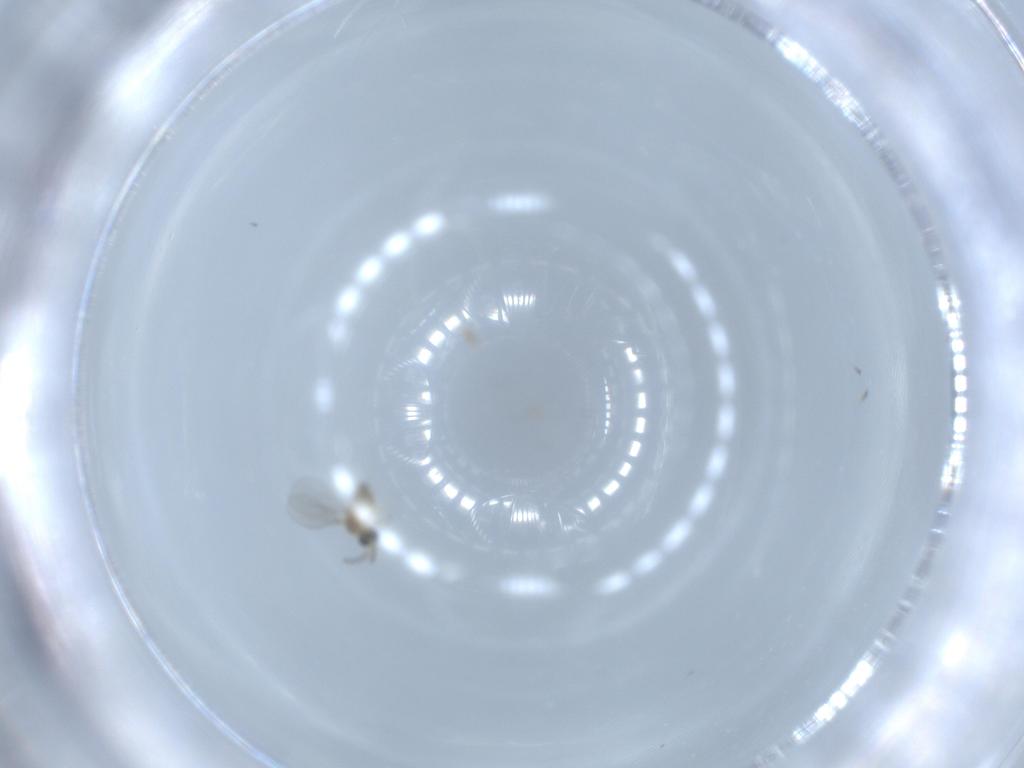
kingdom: Animalia
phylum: Arthropoda
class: Insecta
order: Diptera
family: Cecidomyiidae
